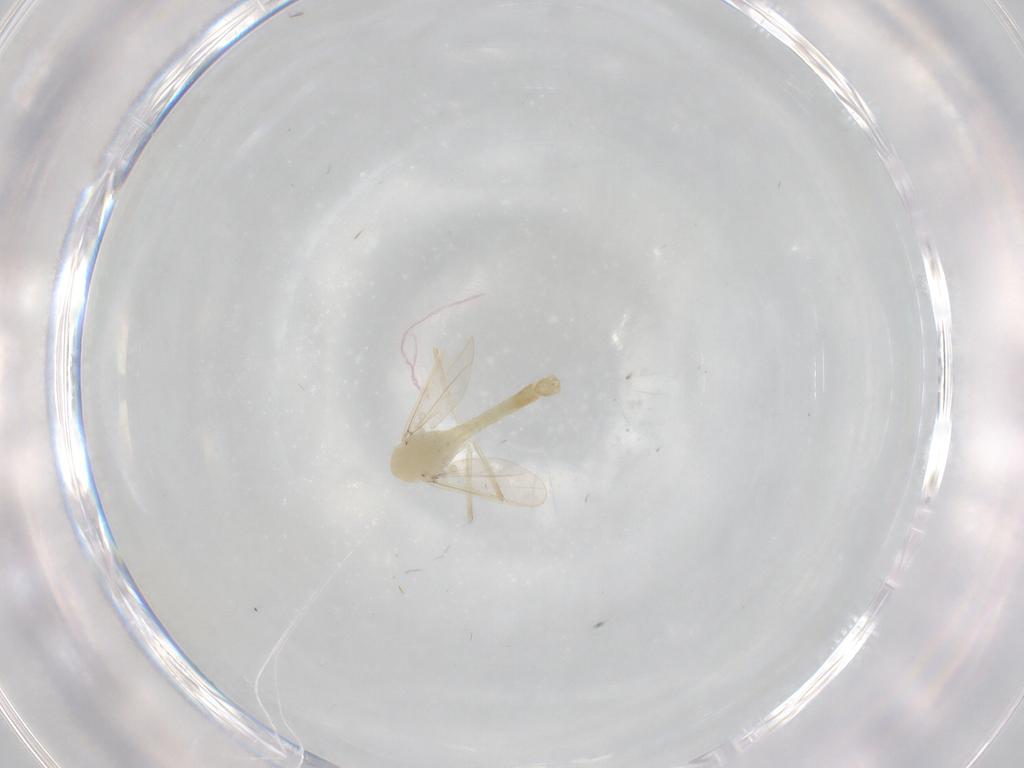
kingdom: Animalia
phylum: Arthropoda
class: Insecta
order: Diptera
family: Chironomidae
